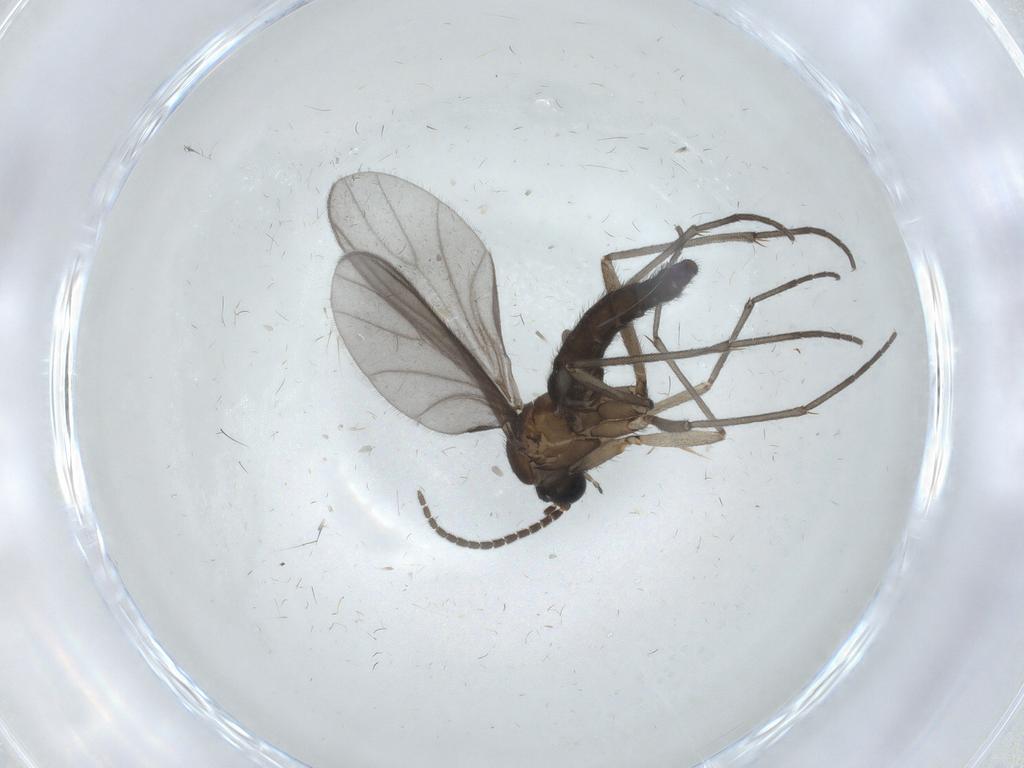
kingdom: Animalia
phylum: Arthropoda
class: Insecta
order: Diptera
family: Sciaridae
